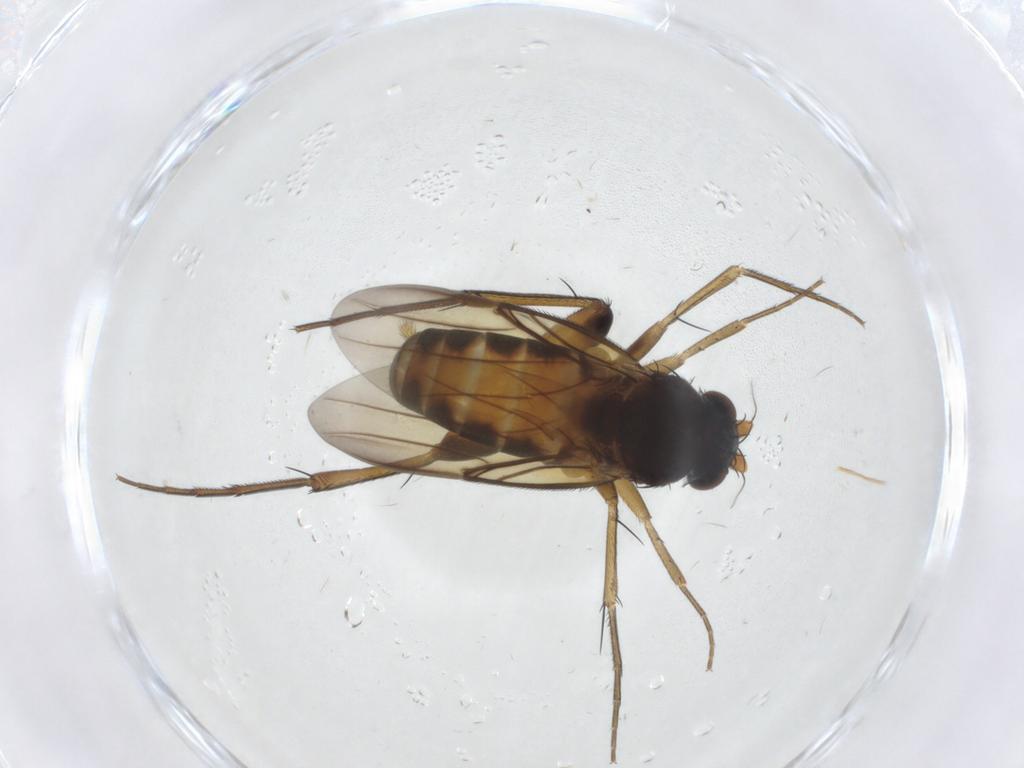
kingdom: Animalia
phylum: Arthropoda
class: Insecta
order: Diptera
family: Phoridae
